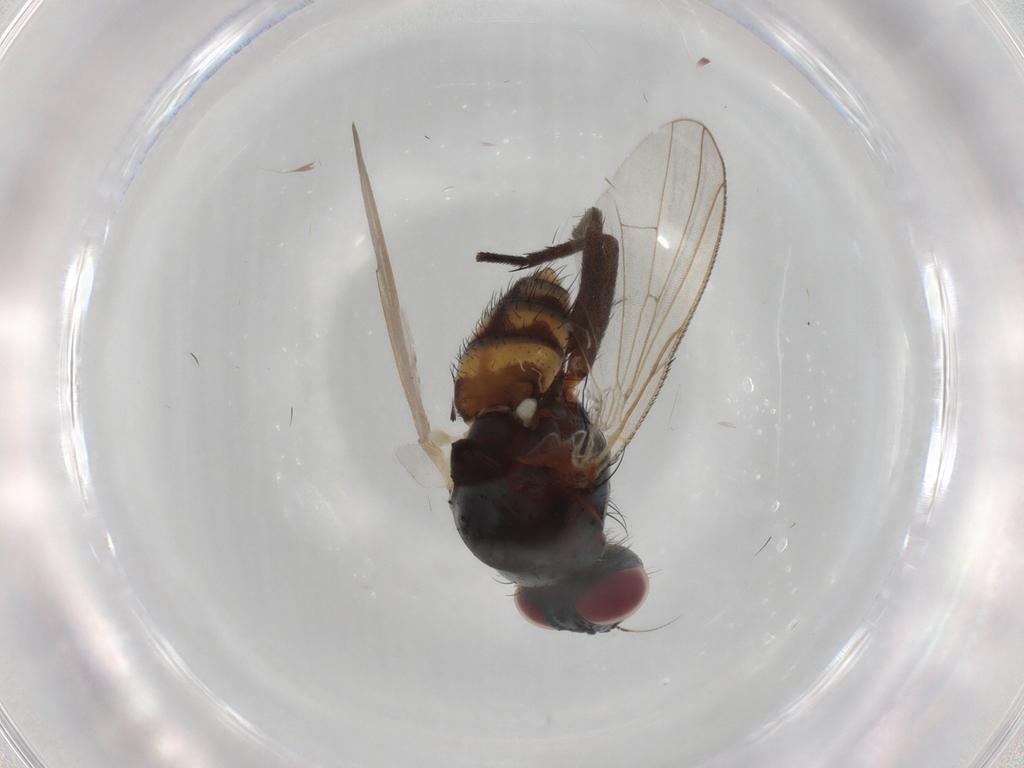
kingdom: Animalia
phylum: Arthropoda
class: Insecta
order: Diptera
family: Anthomyiidae
